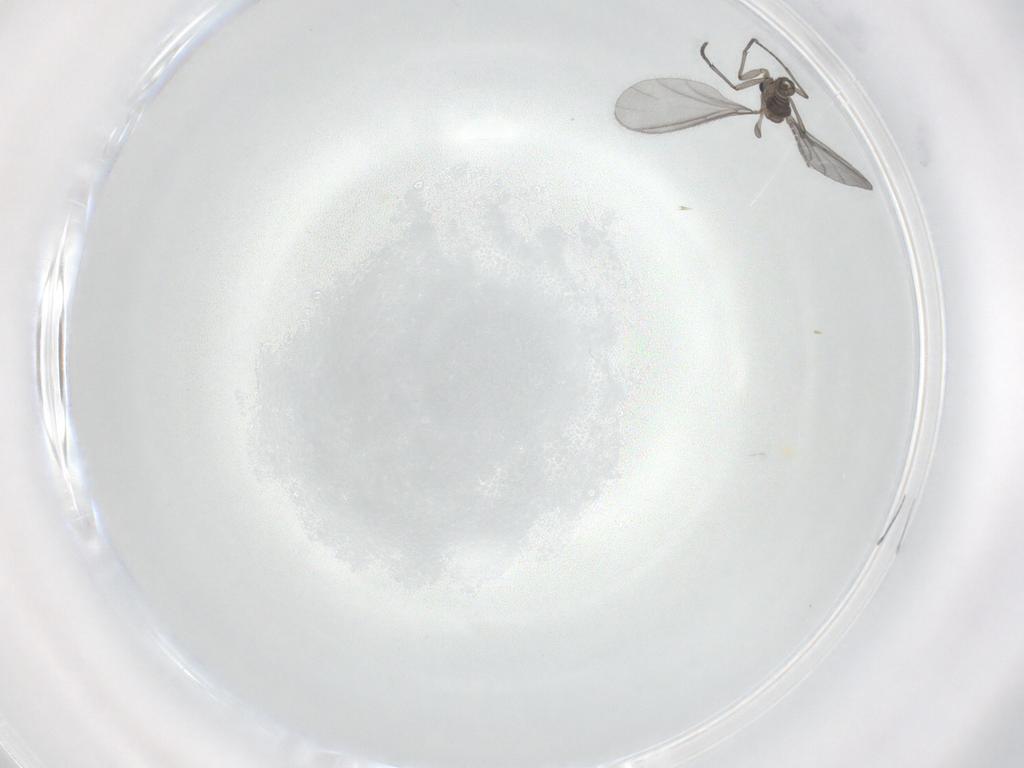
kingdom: Animalia
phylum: Arthropoda
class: Insecta
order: Diptera
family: Sciaridae
